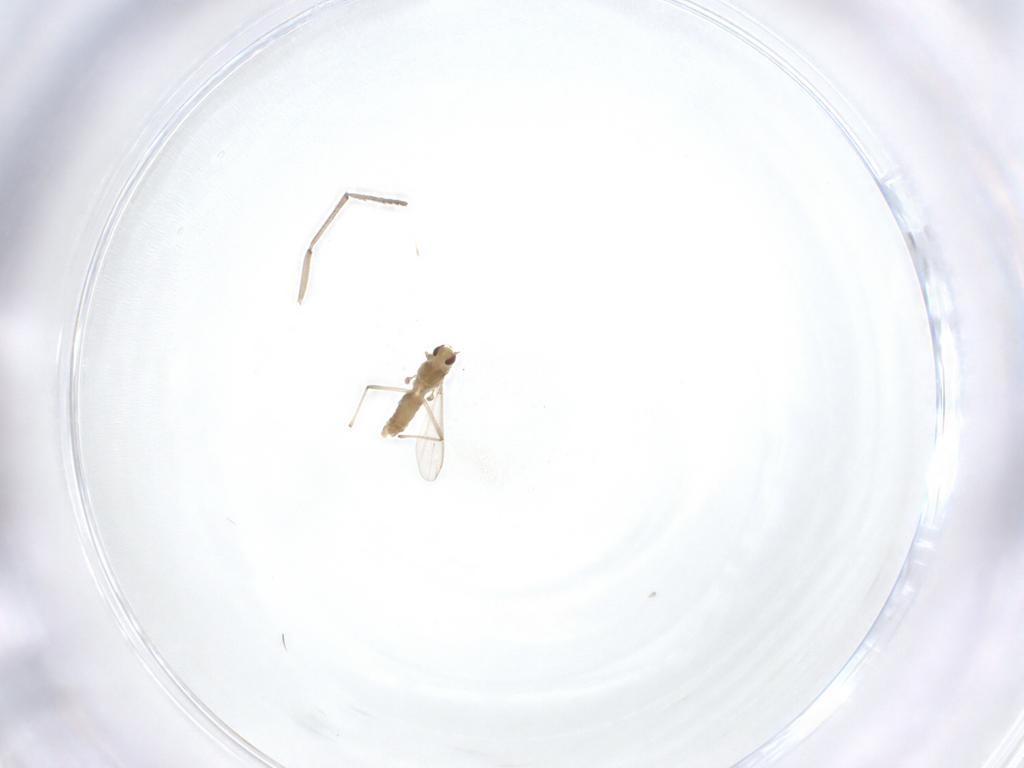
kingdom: Animalia
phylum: Arthropoda
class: Insecta
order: Diptera
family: Chironomidae
